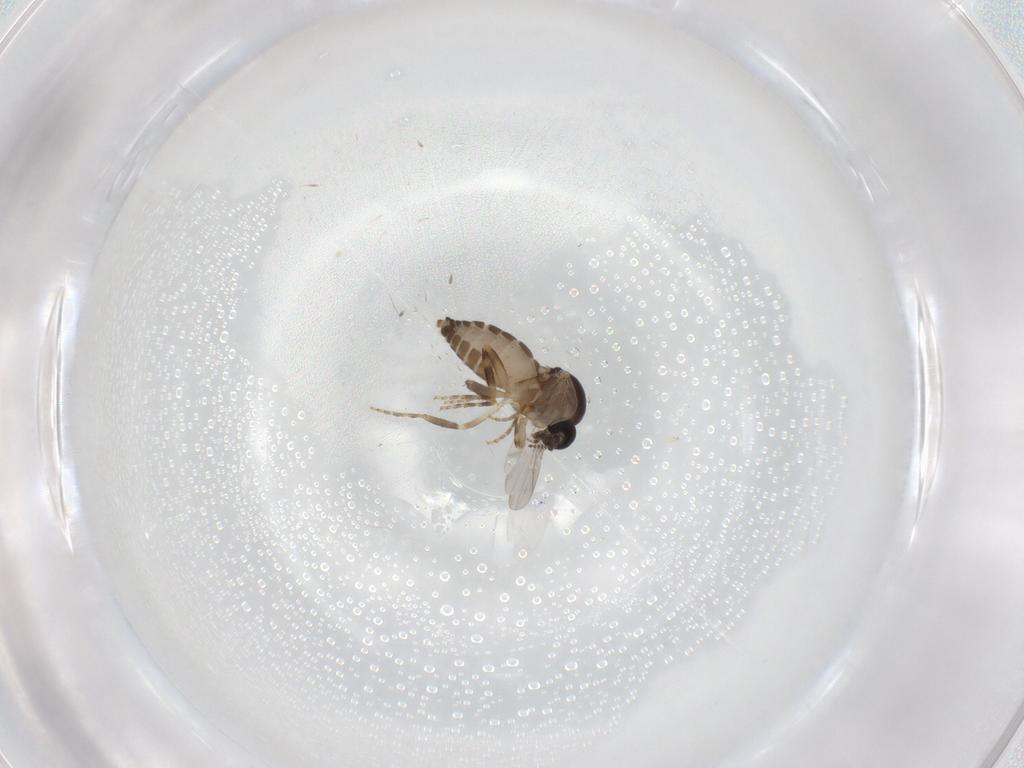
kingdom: Animalia
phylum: Arthropoda
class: Insecta
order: Diptera
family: Ceratopogonidae
